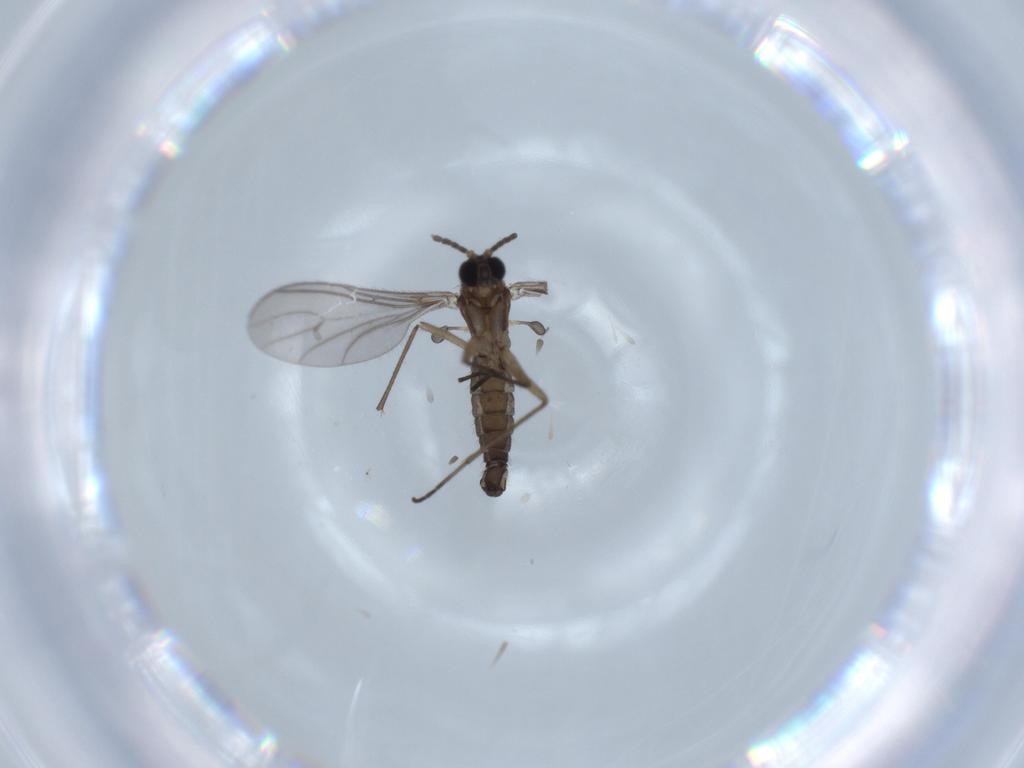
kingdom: Animalia
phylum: Arthropoda
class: Insecta
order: Diptera
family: Sciaridae
